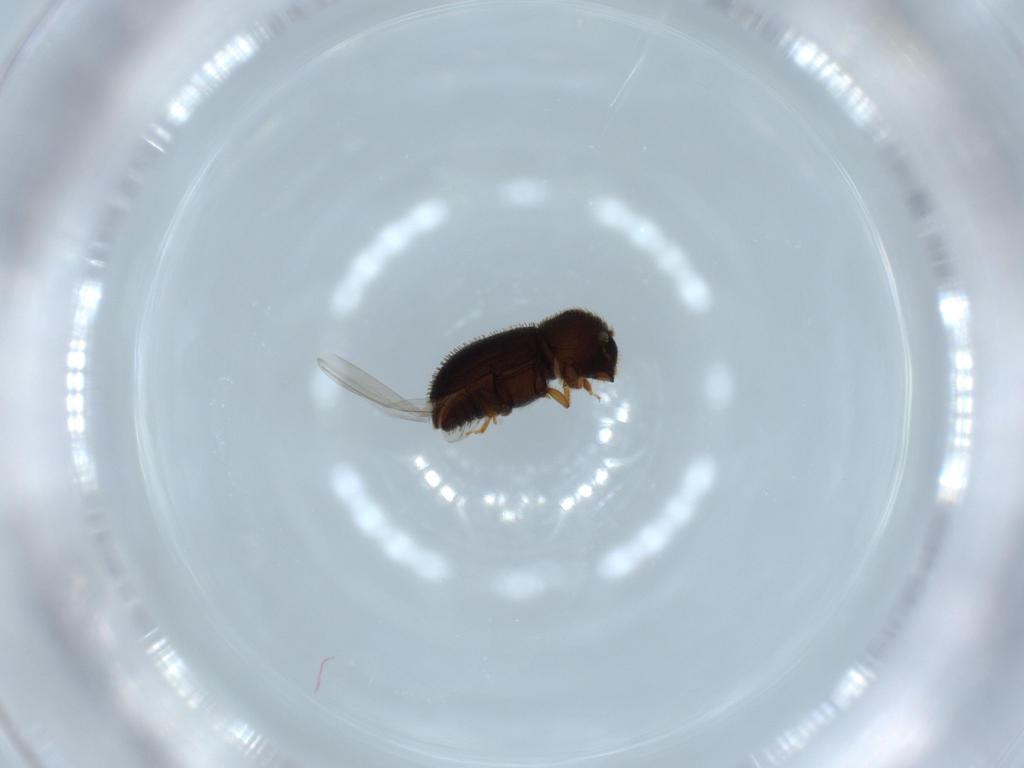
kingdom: Animalia
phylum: Arthropoda
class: Insecta
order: Coleoptera
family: Curculionidae
